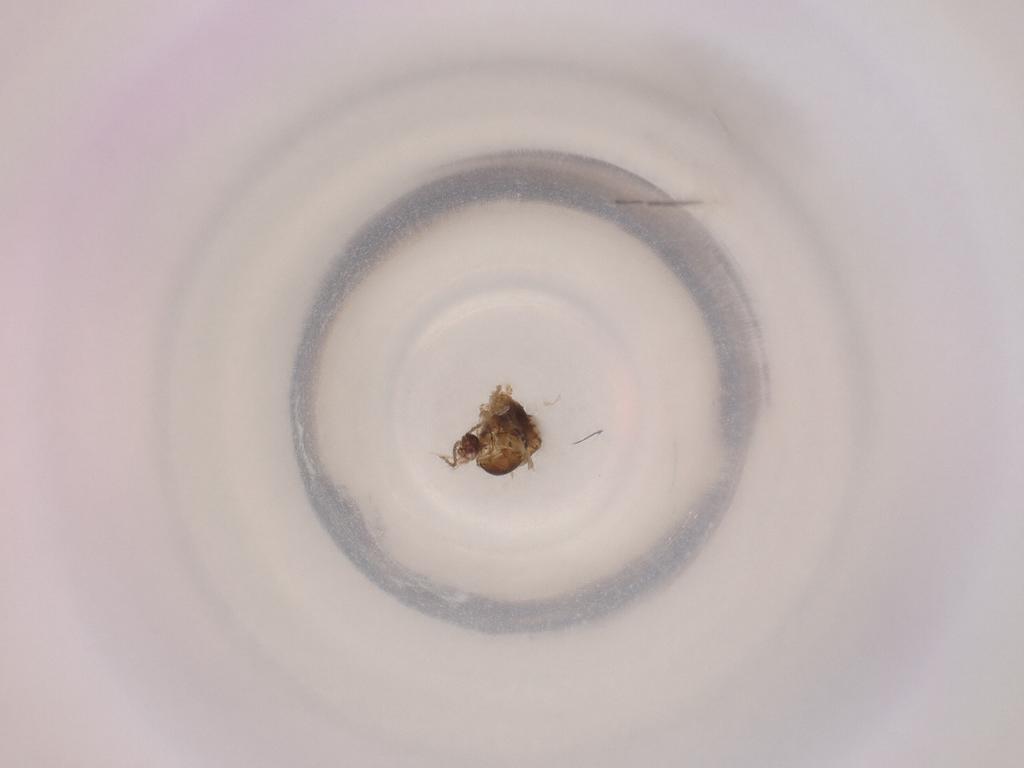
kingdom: Animalia
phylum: Arthropoda
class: Insecta
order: Diptera
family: Cecidomyiidae
